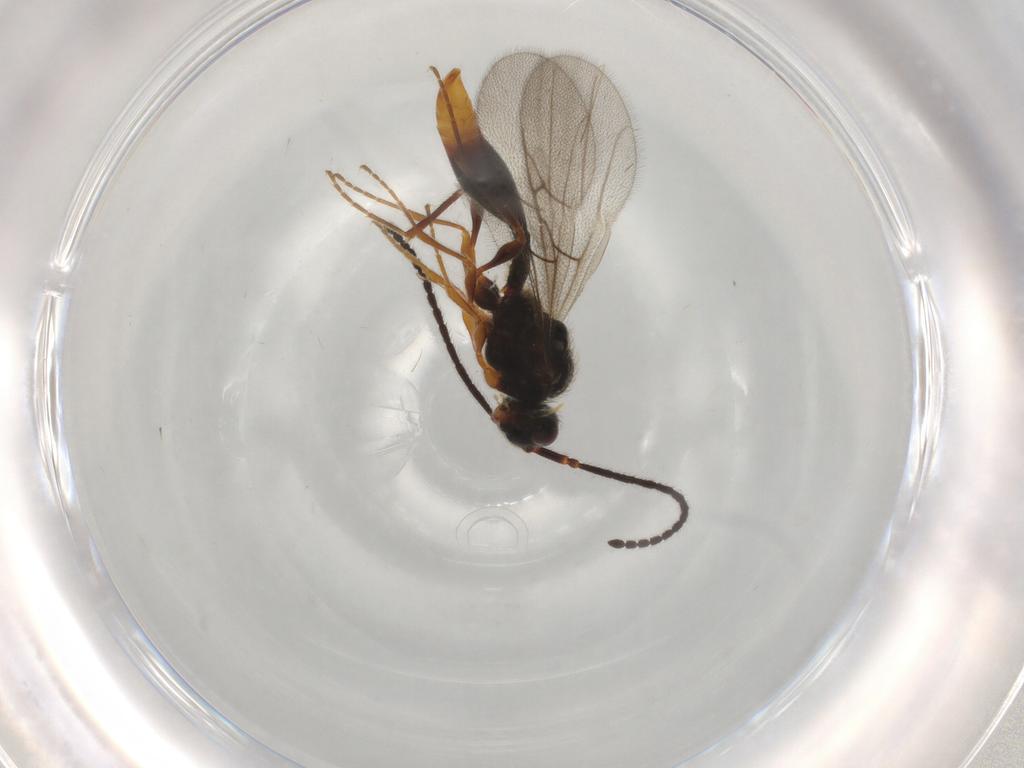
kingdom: Animalia
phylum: Arthropoda
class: Insecta
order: Hymenoptera
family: Diapriidae
